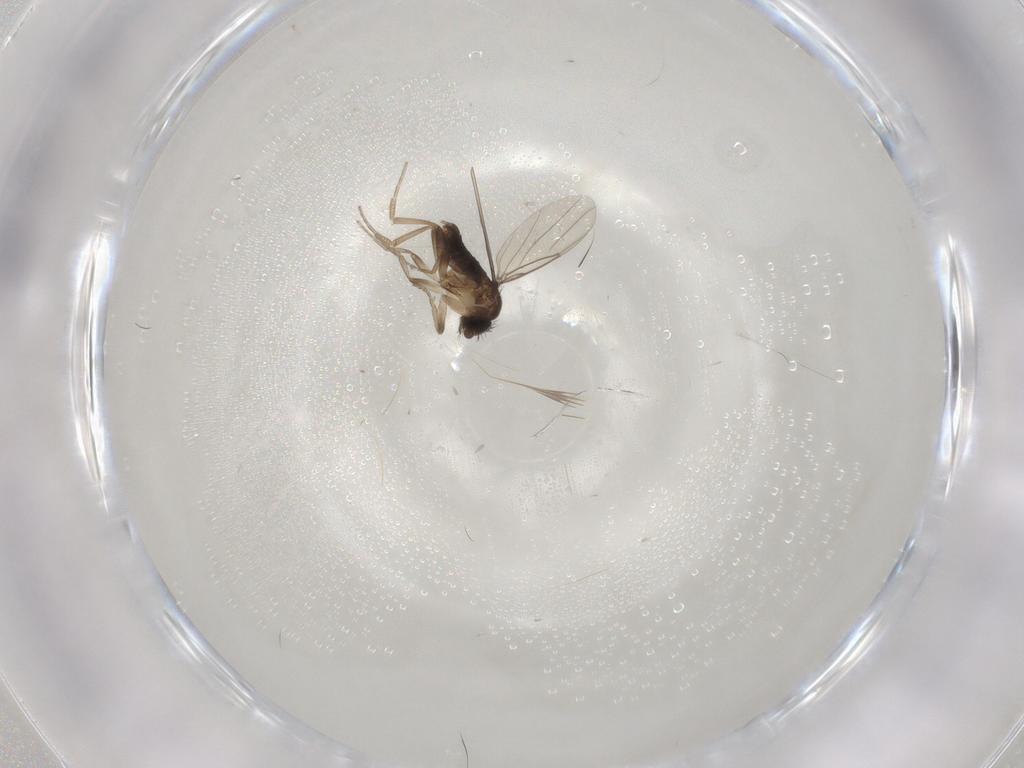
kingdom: Animalia
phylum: Arthropoda
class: Insecta
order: Diptera
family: Phoridae
